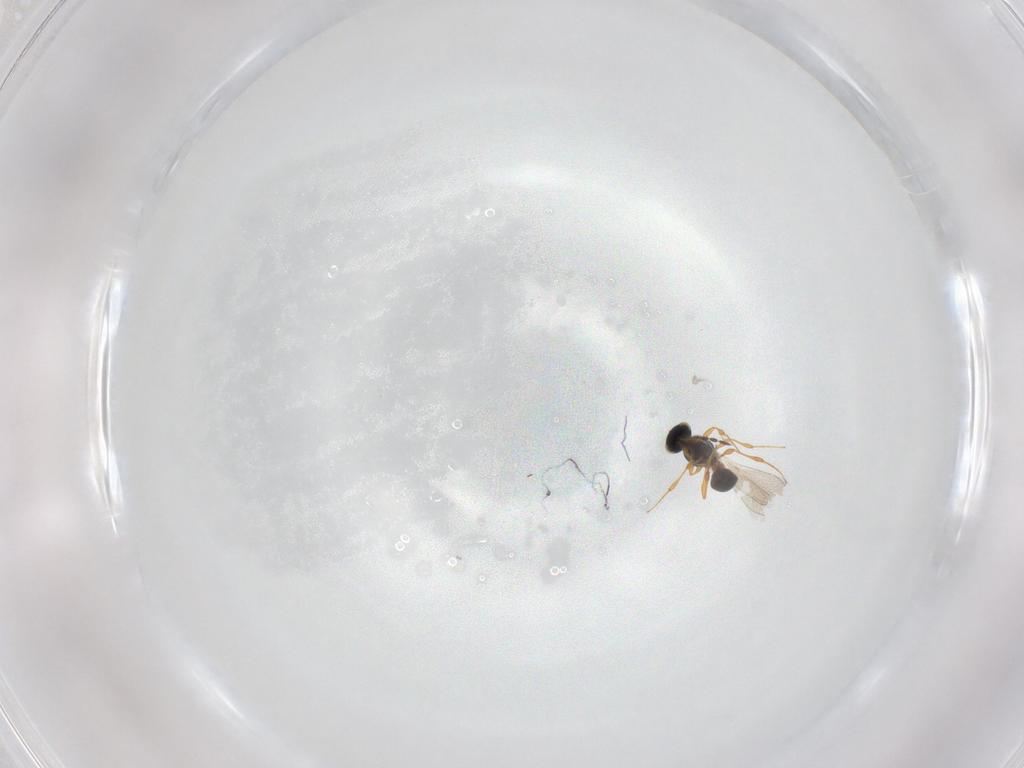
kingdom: Animalia
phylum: Arthropoda
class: Insecta
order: Hymenoptera
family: Platygastridae
